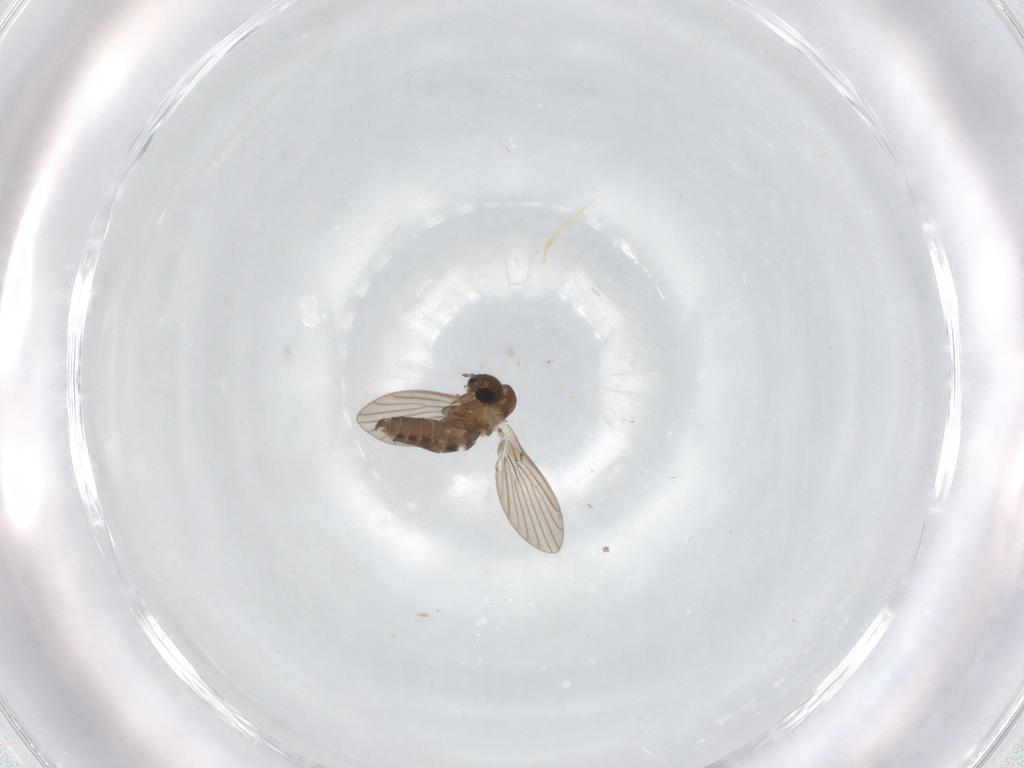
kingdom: Animalia
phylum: Arthropoda
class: Insecta
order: Diptera
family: Psychodidae
